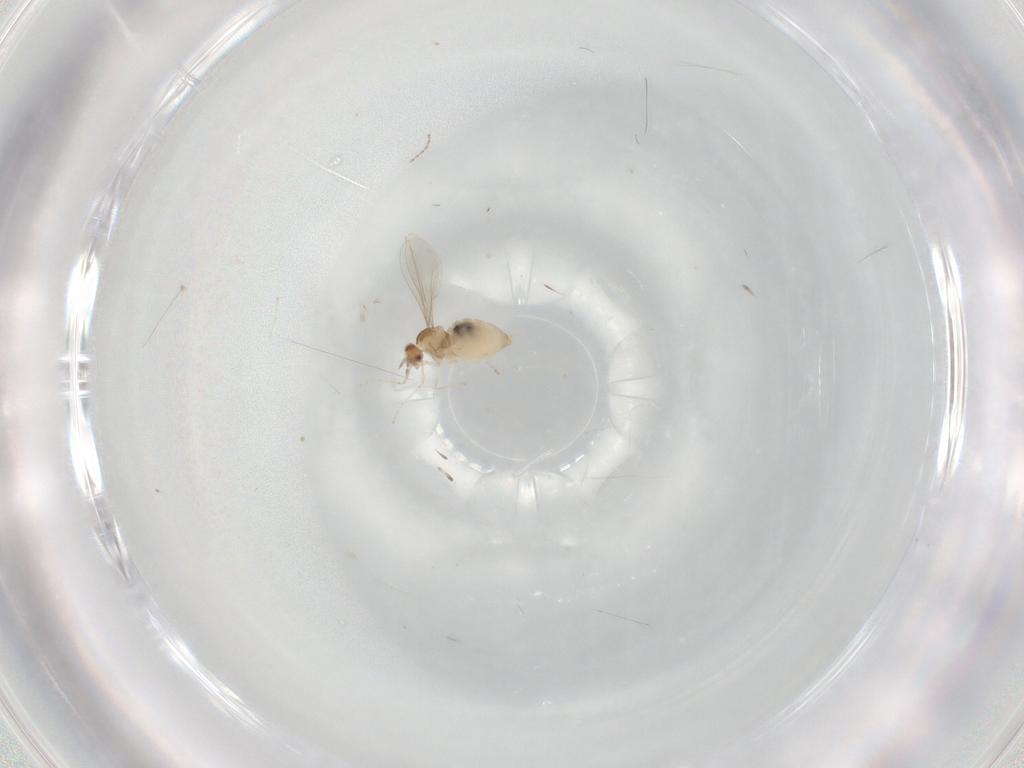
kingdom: Animalia
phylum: Arthropoda
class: Insecta
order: Diptera
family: Cecidomyiidae
